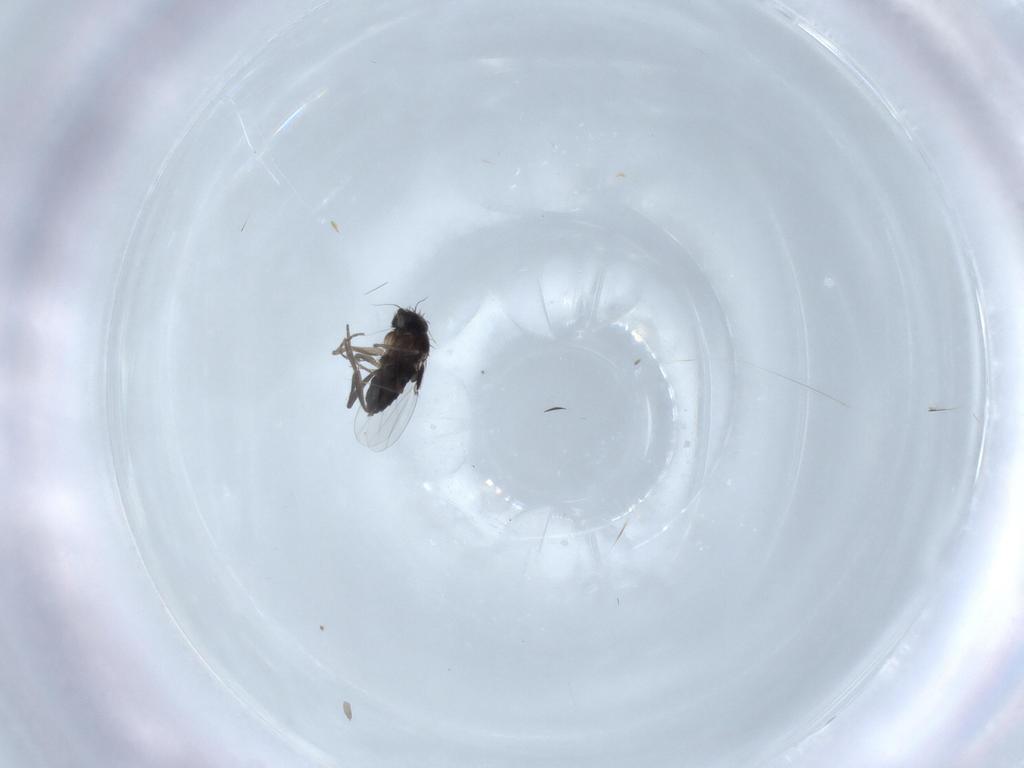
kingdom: Animalia
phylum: Arthropoda
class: Insecta
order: Diptera
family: Phoridae
